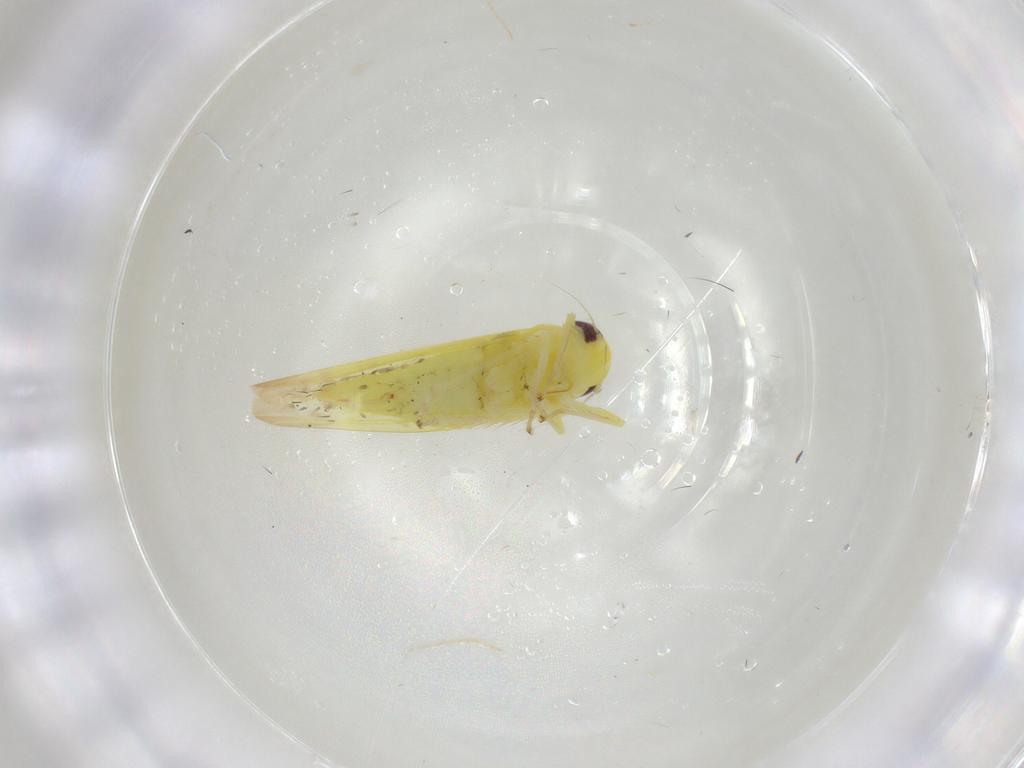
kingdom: Animalia
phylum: Arthropoda
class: Insecta
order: Hemiptera
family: Cicadellidae
